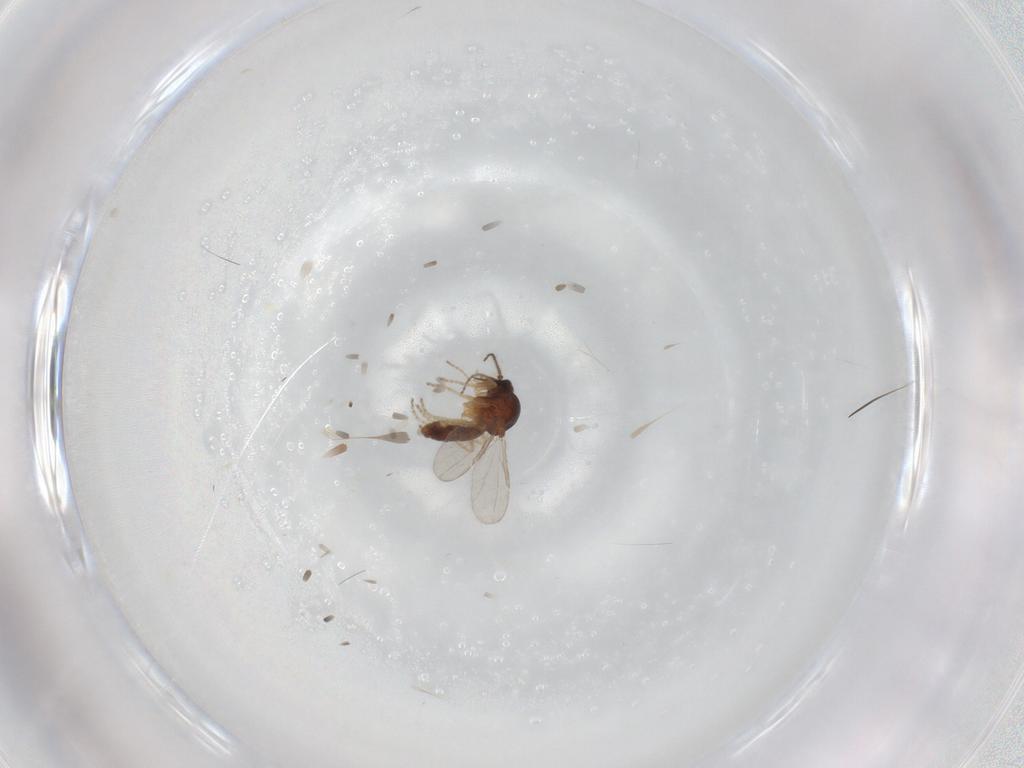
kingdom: Animalia
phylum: Arthropoda
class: Insecta
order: Diptera
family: Ceratopogonidae
